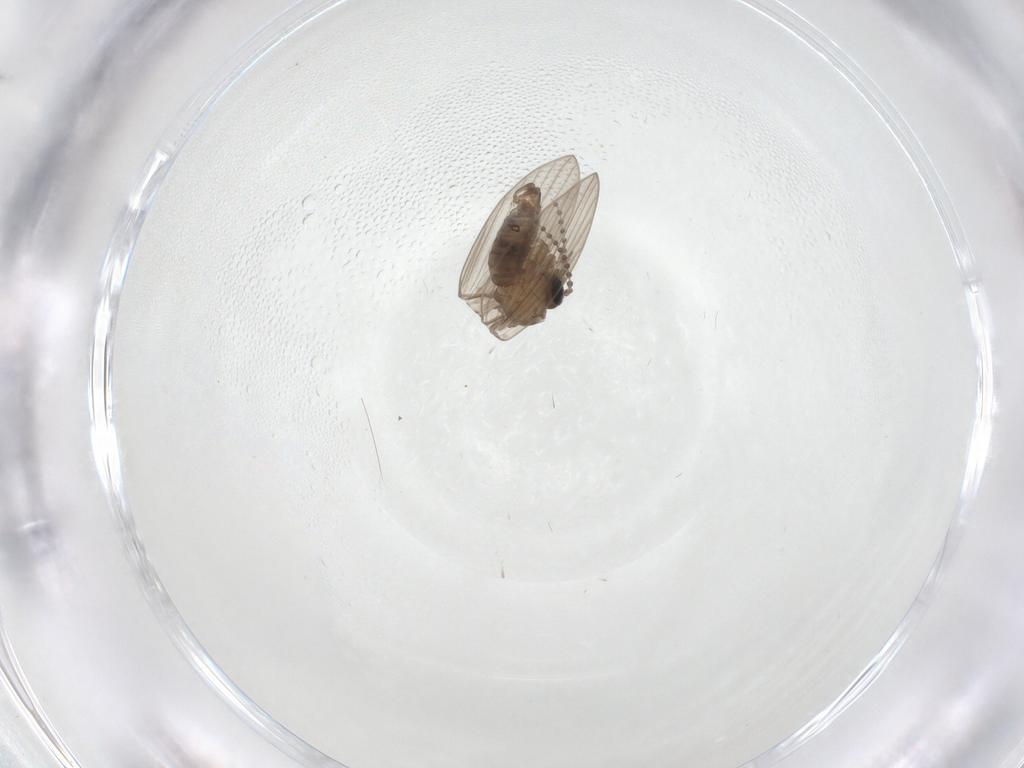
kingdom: Animalia
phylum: Arthropoda
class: Insecta
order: Diptera
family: Psychodidae
